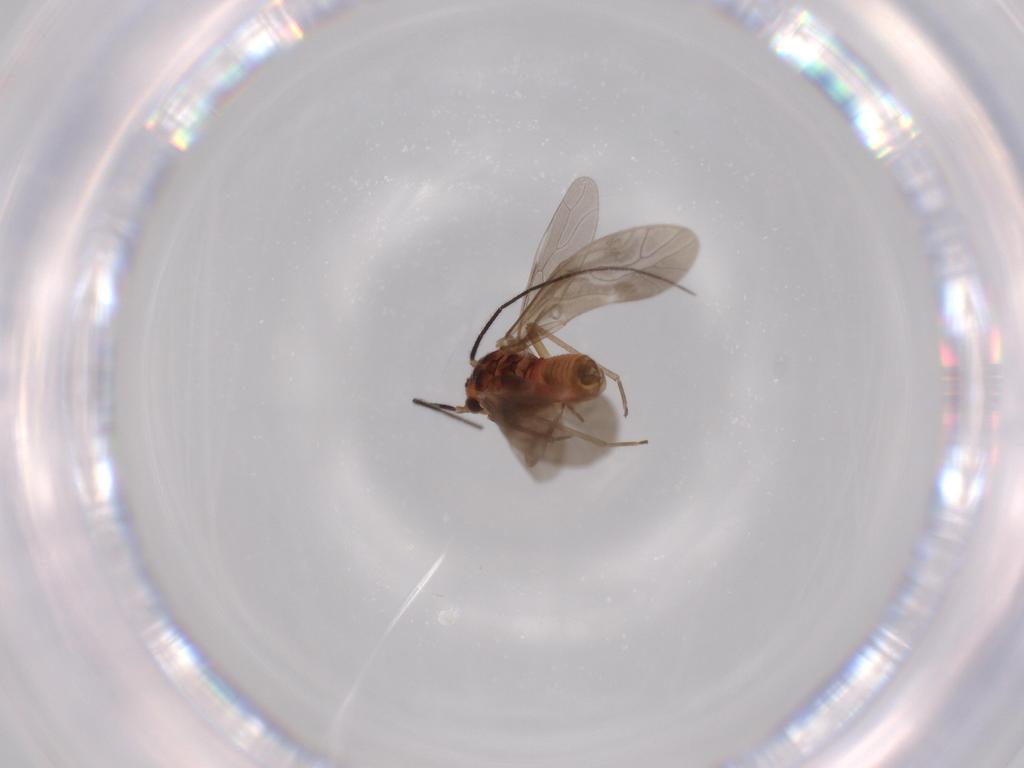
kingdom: Animalia
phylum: Arthropoda
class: Insecta
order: Psocodea
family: Caeciliusidae
